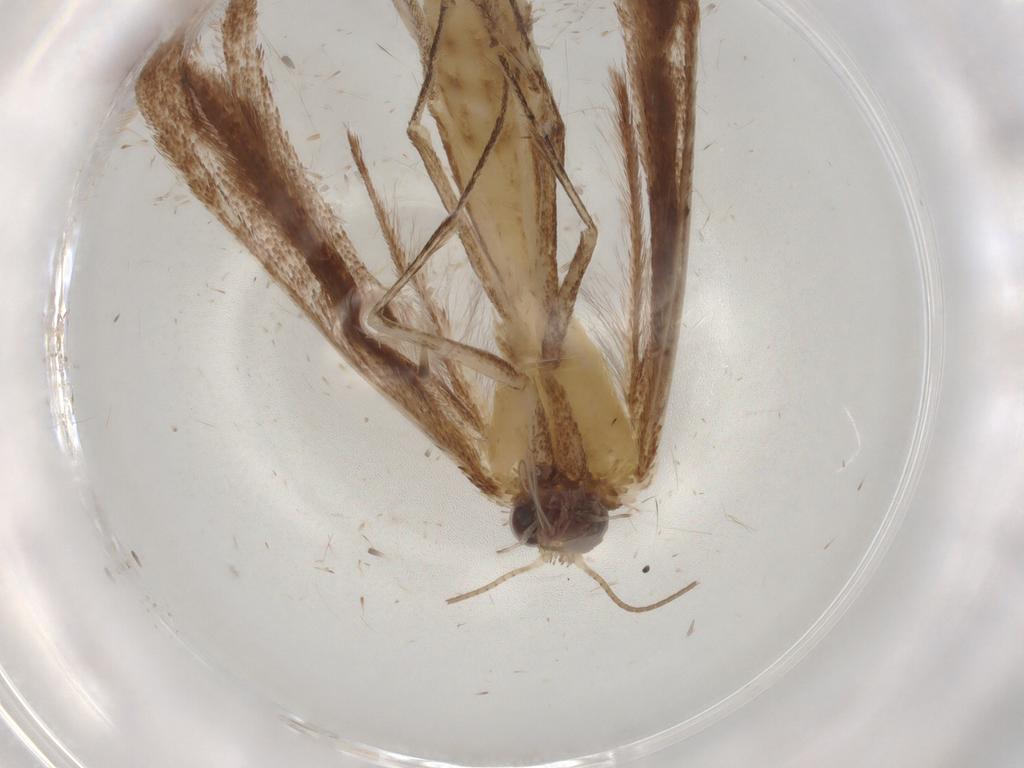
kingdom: Animalia
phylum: Arthropoda
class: Insecta
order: Lepidoptera
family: Elachistidae
